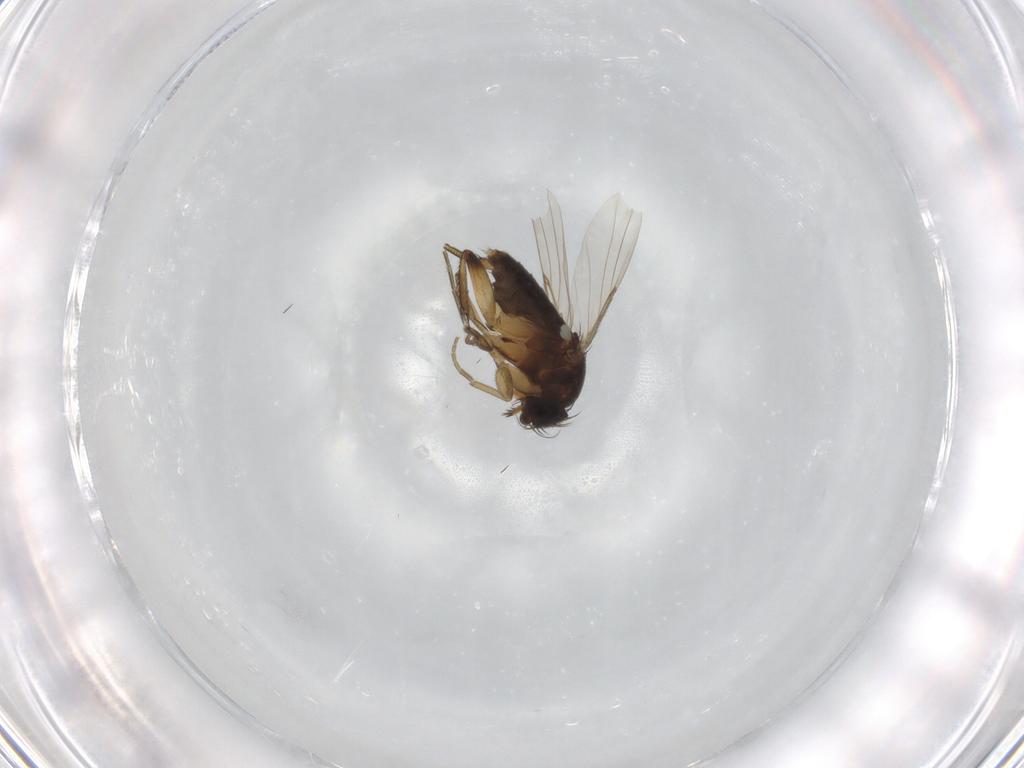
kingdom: Animalia
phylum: Arthropoda
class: Insecta
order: Diptera
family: Phoridae
